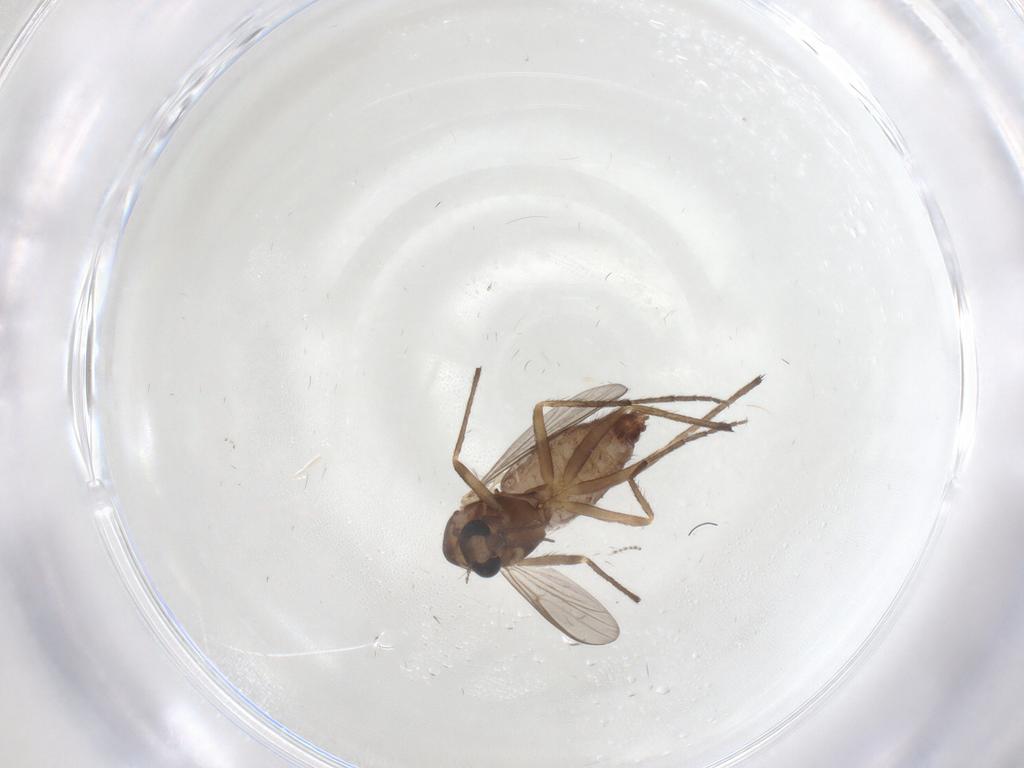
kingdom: Animalia
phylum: Arthropoda
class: Insecta
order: Diptera
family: Chironomidae
